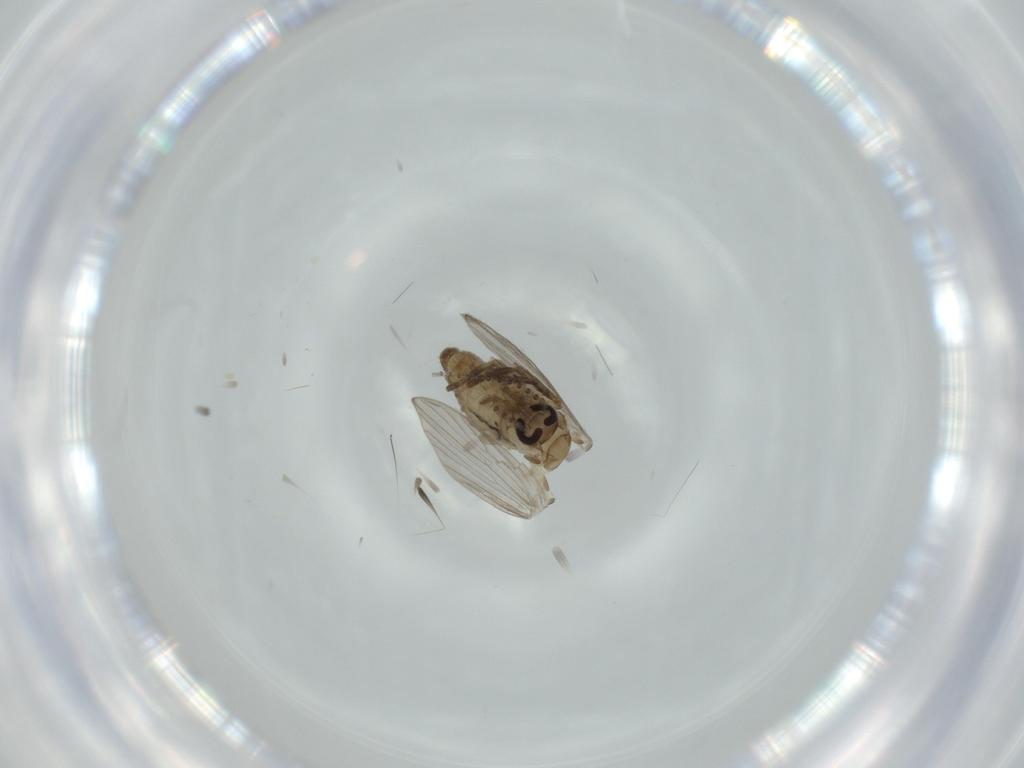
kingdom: Animalia
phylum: Arthropoda
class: Insecta
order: Diptera
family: Psychodidae
